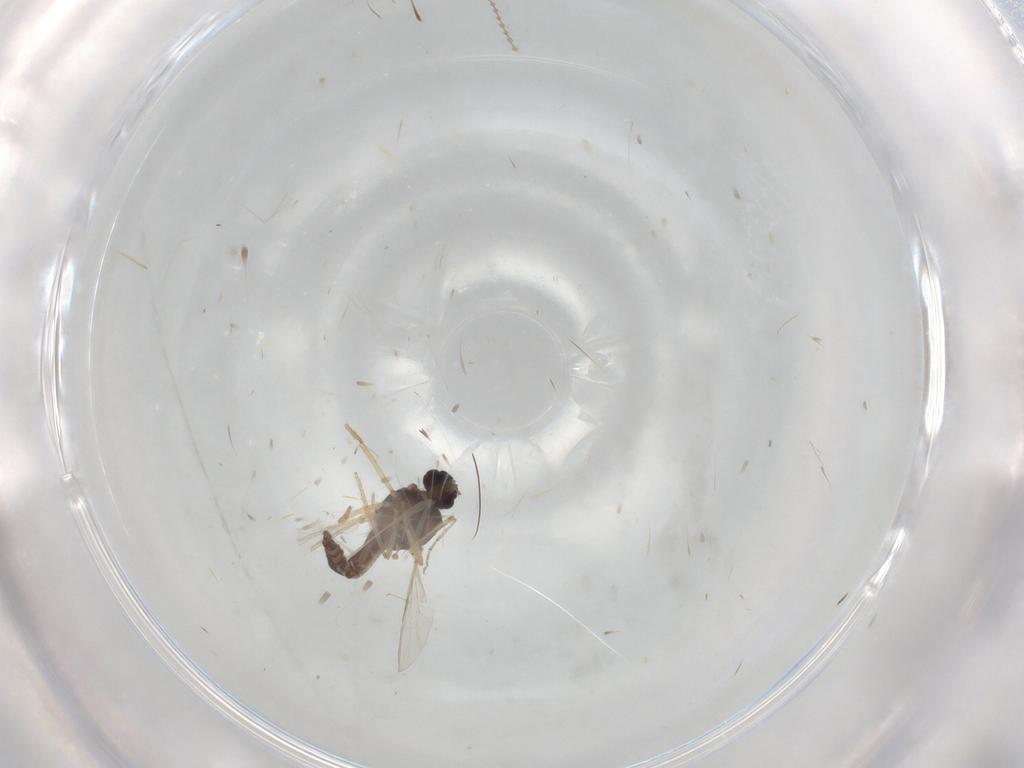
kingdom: Animalia
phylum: Arthropoda
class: Insecta
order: Diptera
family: Ceratopogonidae
